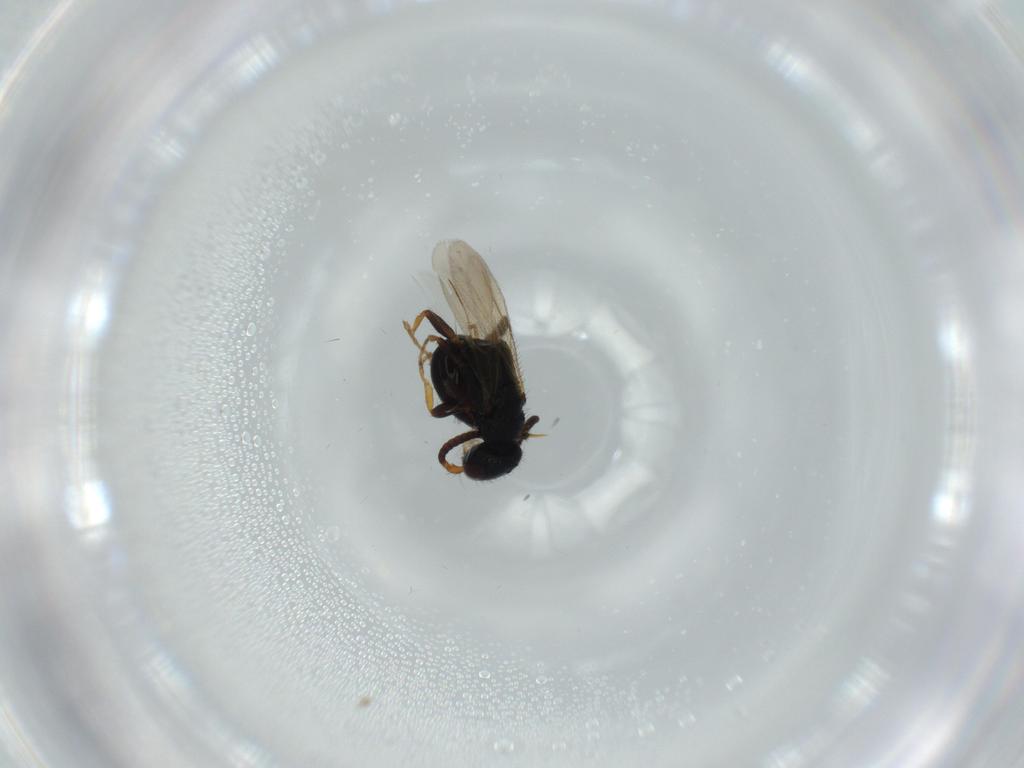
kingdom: Animalia
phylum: Arthropoda
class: Insecta
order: Hymenoptera
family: Bethylidae
